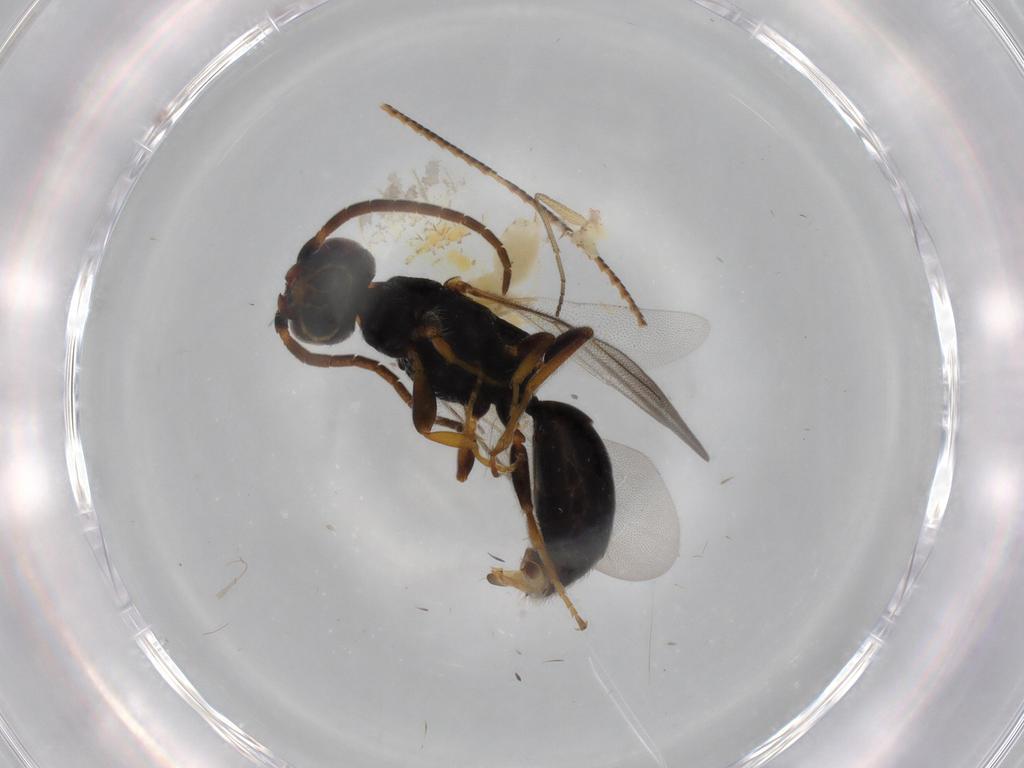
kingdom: Animalia
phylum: Arthropoda
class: Insecta
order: Hymenoptera
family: Bethylidae
